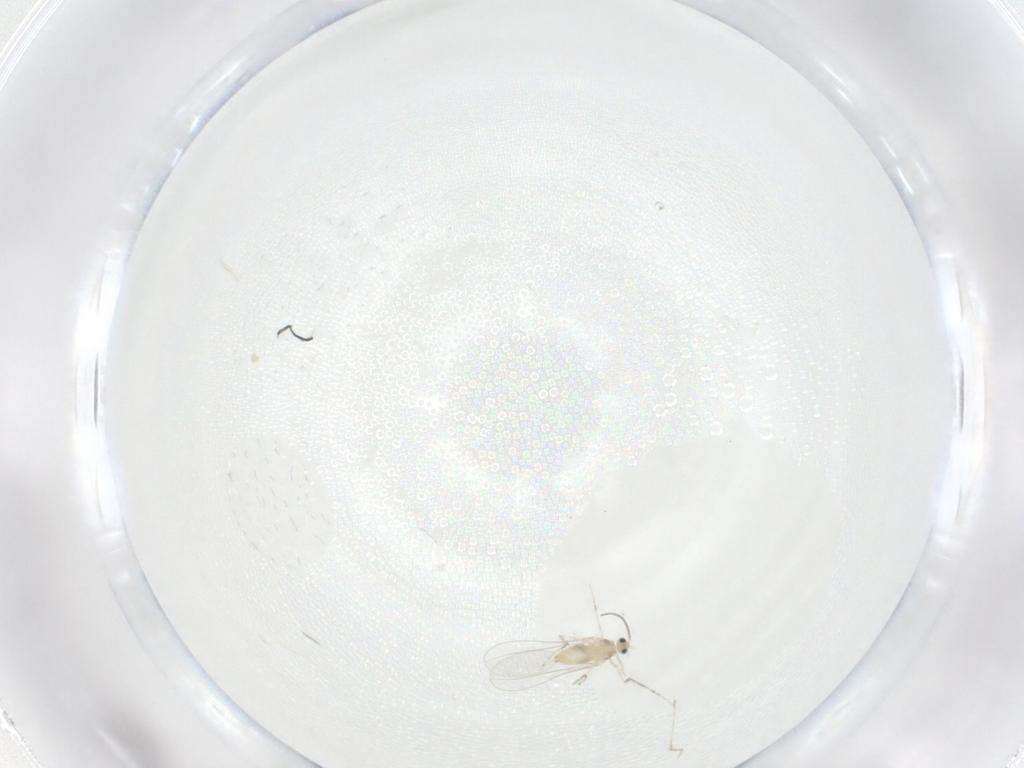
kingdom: Animalia
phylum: Arthropoda
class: Insecta
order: Diptera
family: Cecidomyiidae
